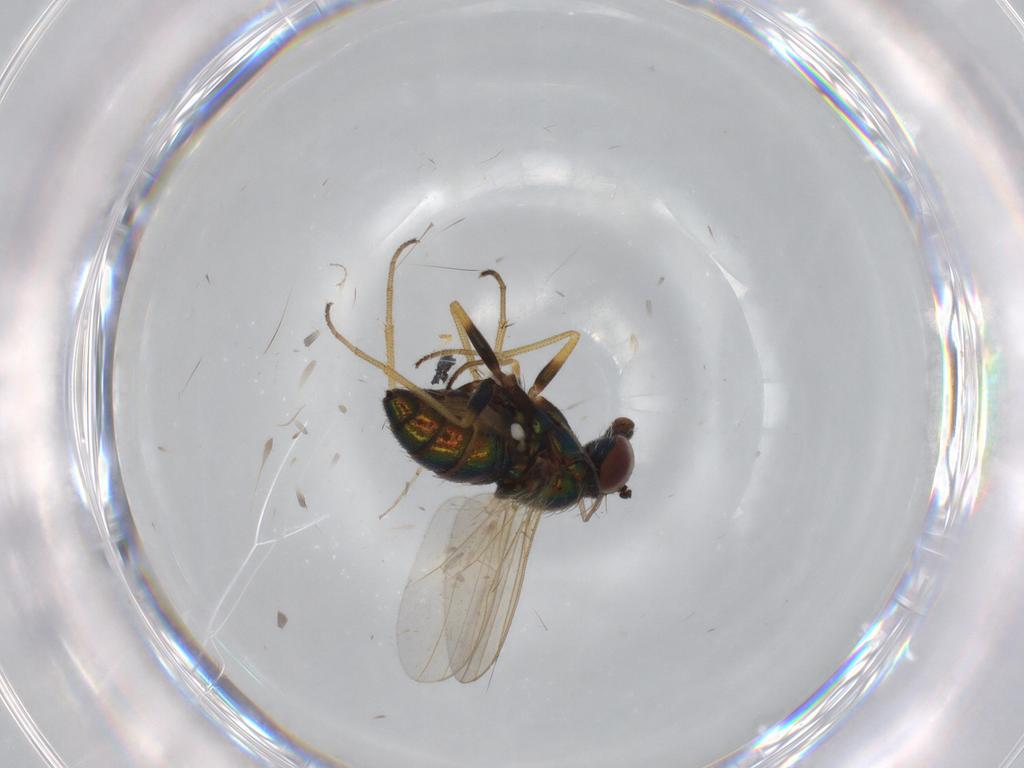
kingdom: Animalia
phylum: Arthropoda
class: Insecta
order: Diptera
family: Dolichopodidae
